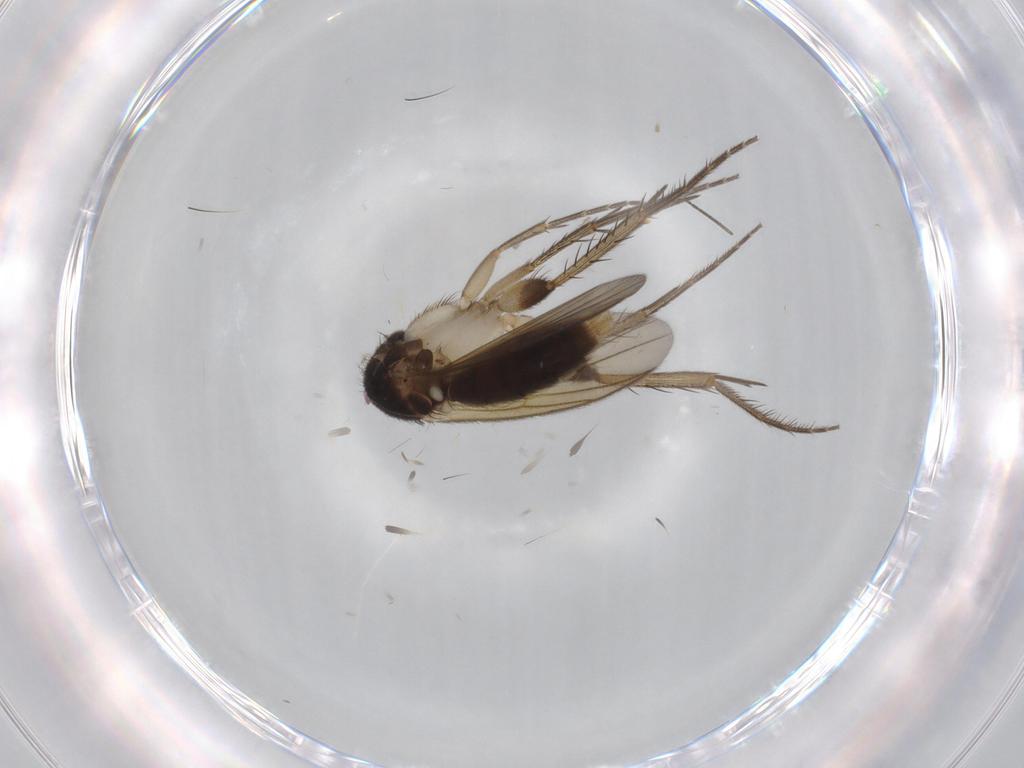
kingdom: Animalia
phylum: Arthropoda
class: Insecta
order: Diptera
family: Mycetophilidae
